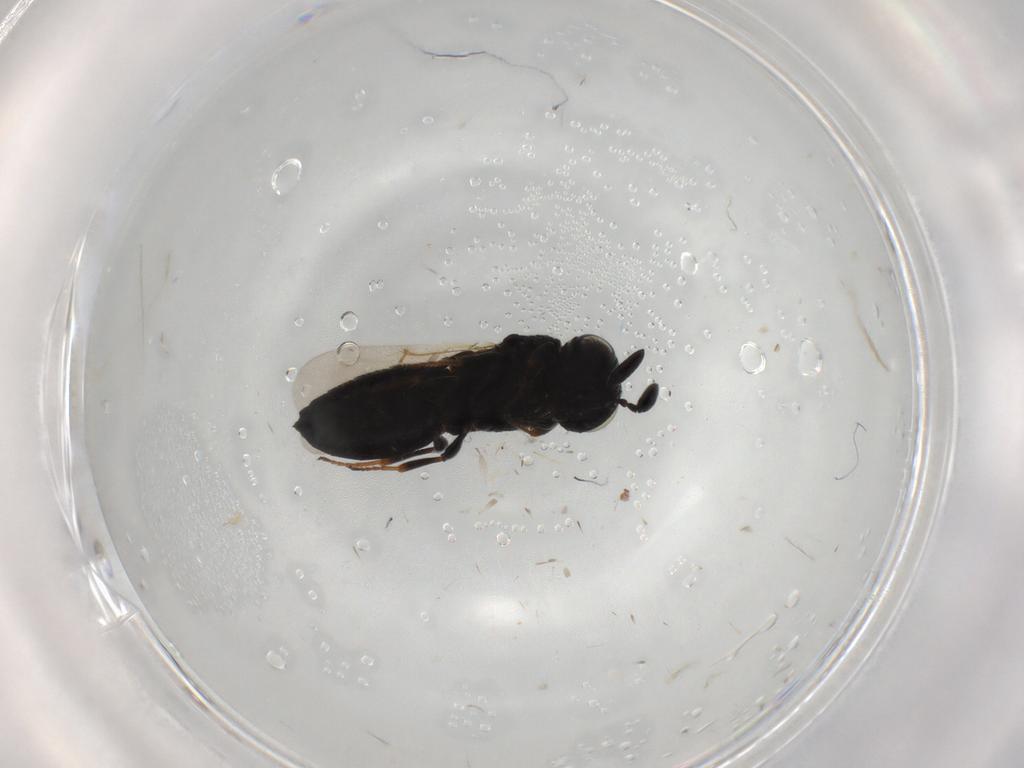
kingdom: Animalia
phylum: Arthropoda
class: Insecta
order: Hymenoptera
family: Scelionidae
